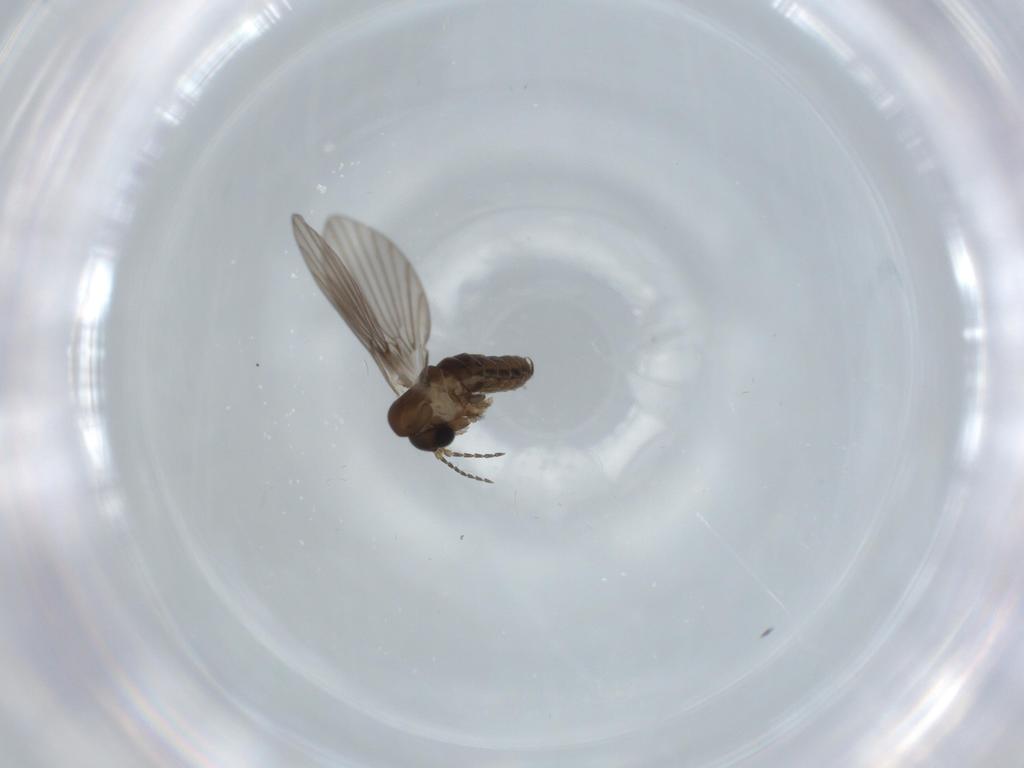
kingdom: Animalia
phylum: Arthropoda
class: Insecta
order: Diptera
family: Psychodidae
